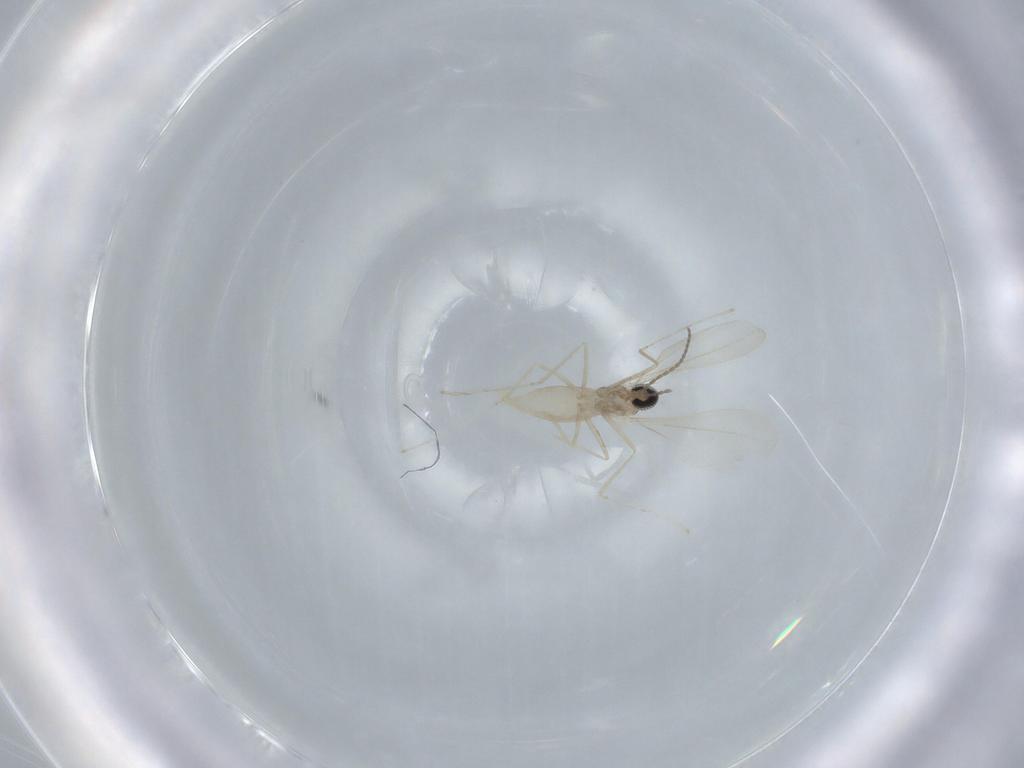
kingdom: Animalia
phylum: Arthropoda
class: Insecta
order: Diptera
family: Cecidomyiidae
